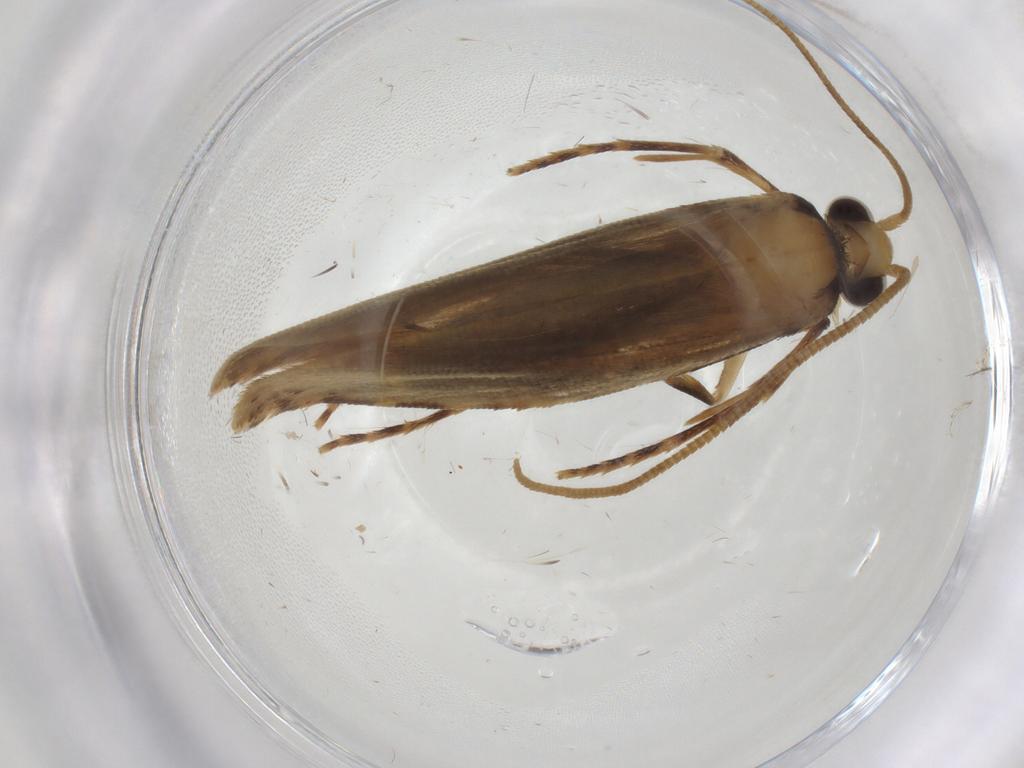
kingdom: Animalia
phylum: Arthropoda
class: Insecta
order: Lepidoptera
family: Tineidae
